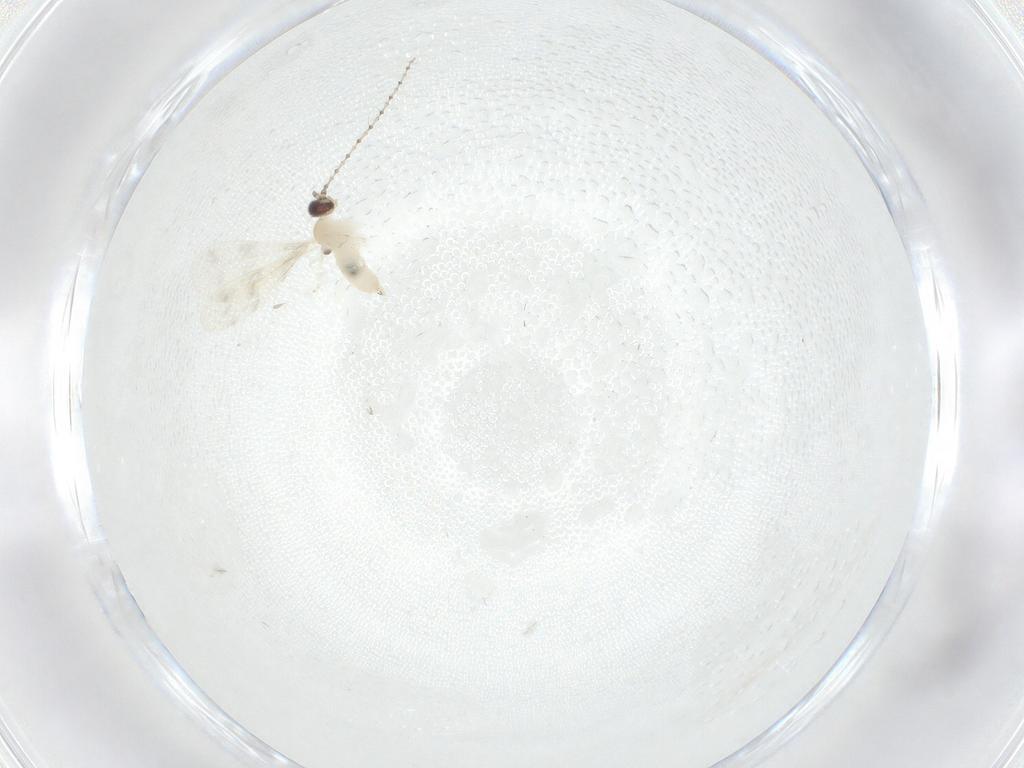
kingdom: Animalia
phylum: Arthropoda
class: Insecta
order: Diptera
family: Cecidomyiidae
